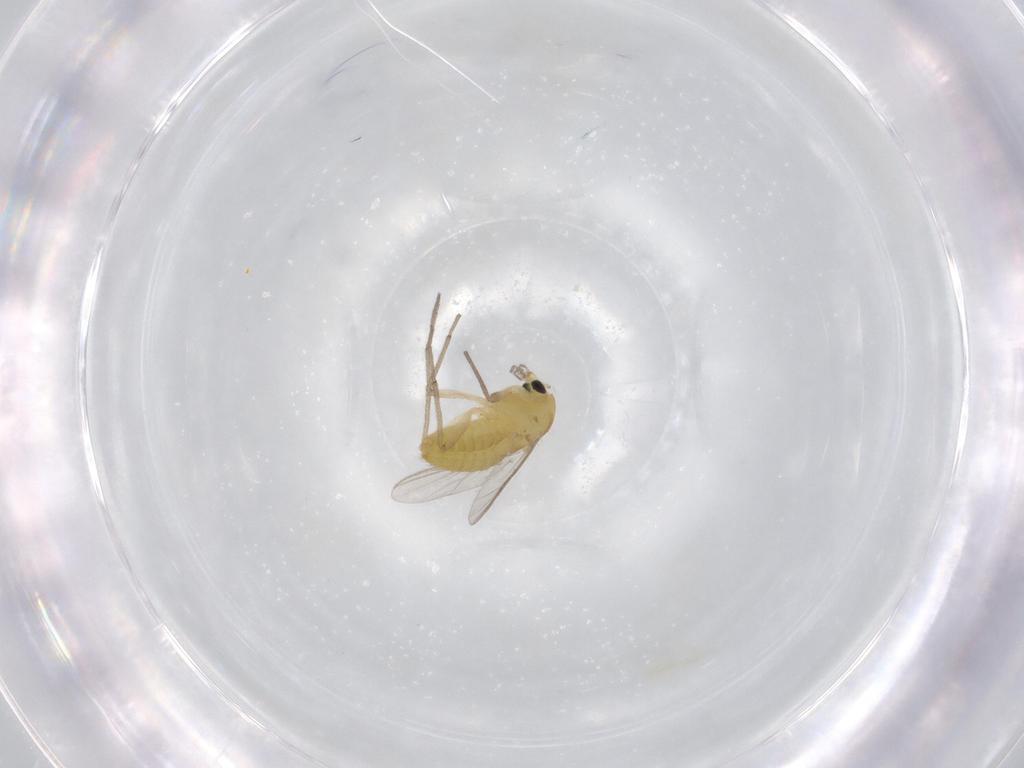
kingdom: Animalia
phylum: Arthropoda
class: Insecta
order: Diptera
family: Chironomidae
